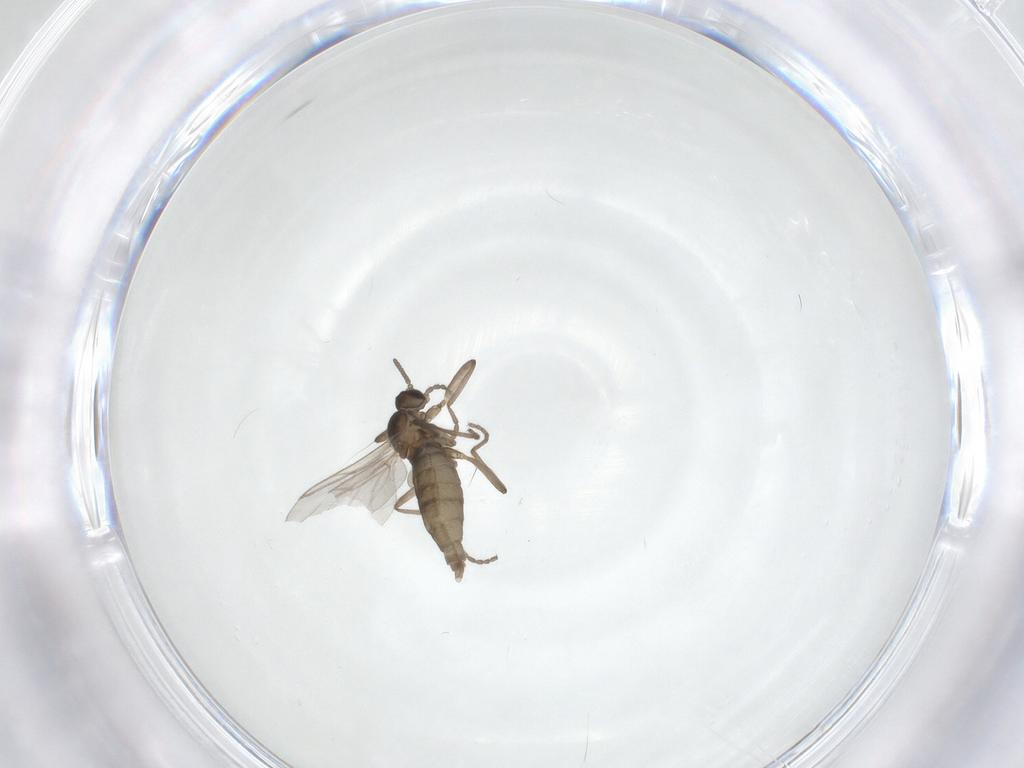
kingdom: Animalia
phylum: Arthropoda
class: Insecta
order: Diptera
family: Cecidomyiidae
